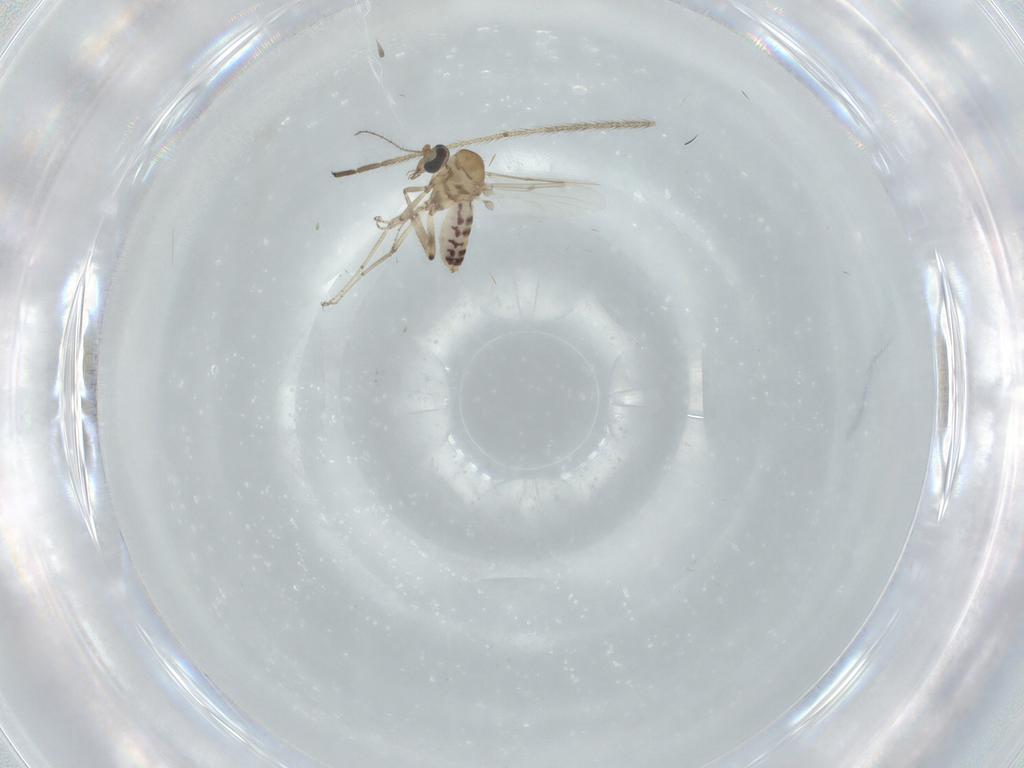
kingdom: Animalia
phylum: Arthropoda
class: Insecta
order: Diptera
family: Ceratopogonidae
